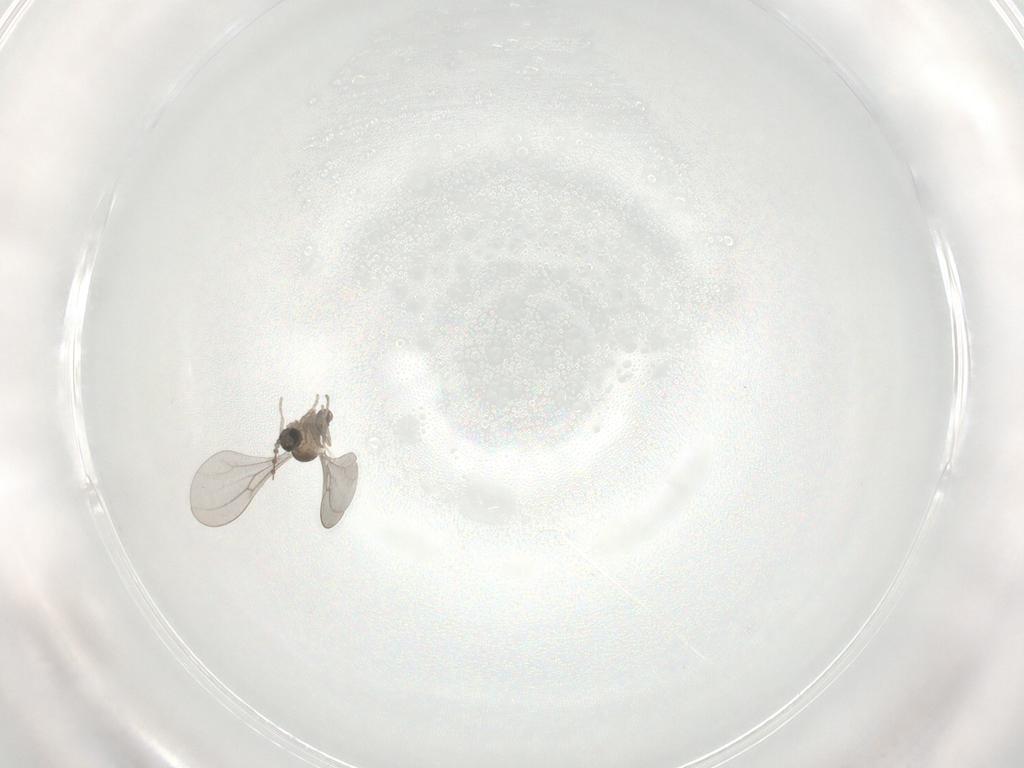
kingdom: Animalia
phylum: Arthropoda
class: Insecta
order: Diptera
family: Cecidomyiidae
